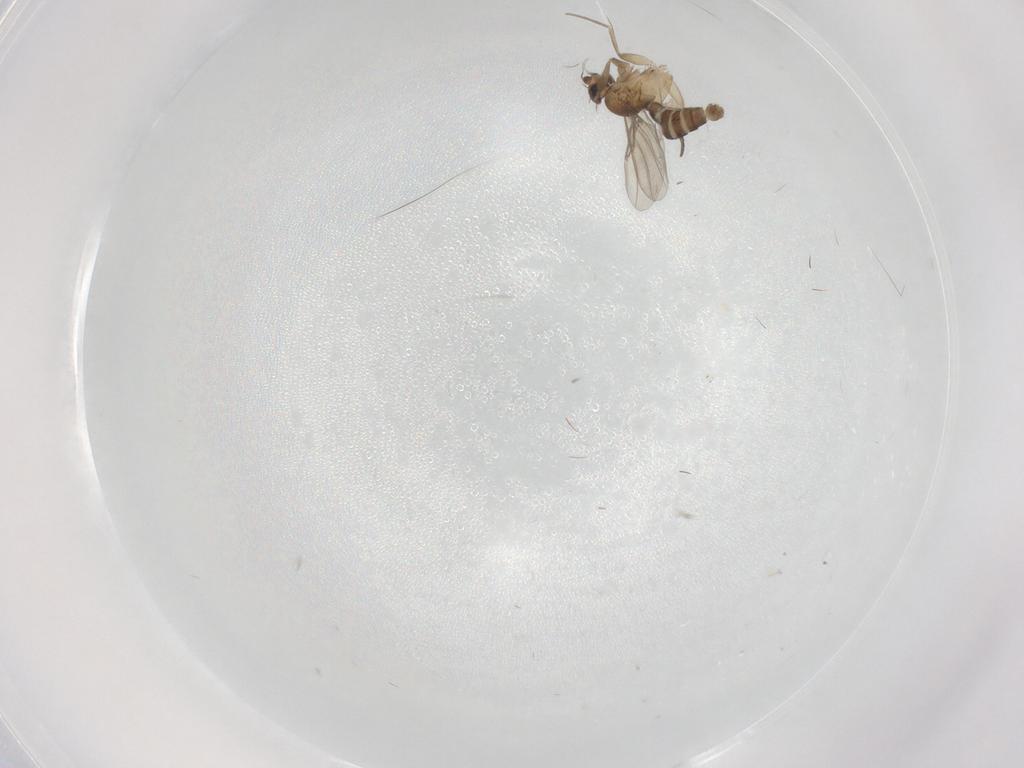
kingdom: Animalia
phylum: Arthropoda
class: Insecta
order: Diptera
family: Phoridae
